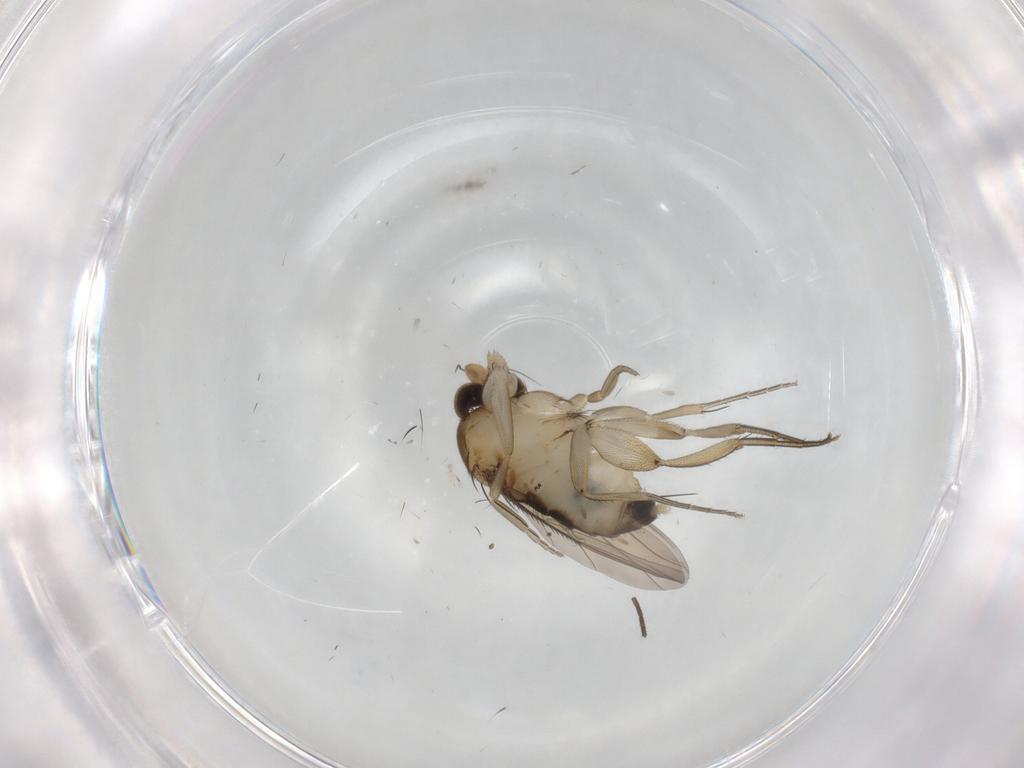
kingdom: Animalia
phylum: Arthropoda
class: Insecta
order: Diptera
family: Phoridae
